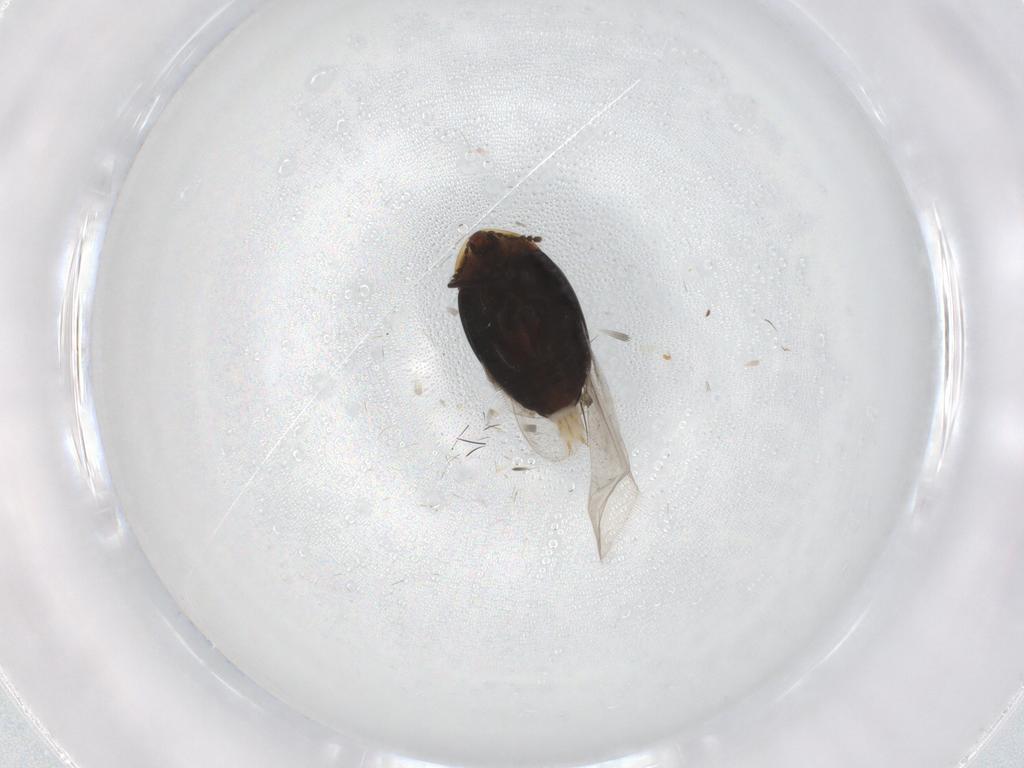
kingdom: Animalia
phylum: Arthropoda
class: Insecta
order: Coleoptera
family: Corylophidae
